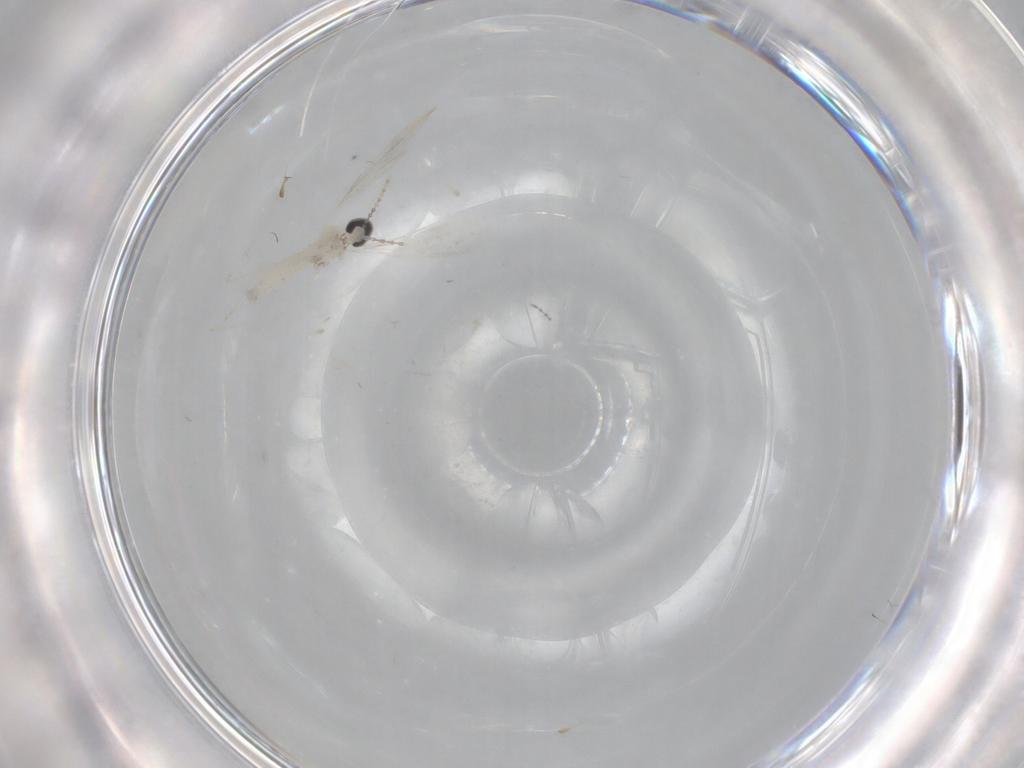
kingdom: Animalia
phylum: Arthropoda
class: Insecta
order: Diptera
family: Cecidomyiidae
